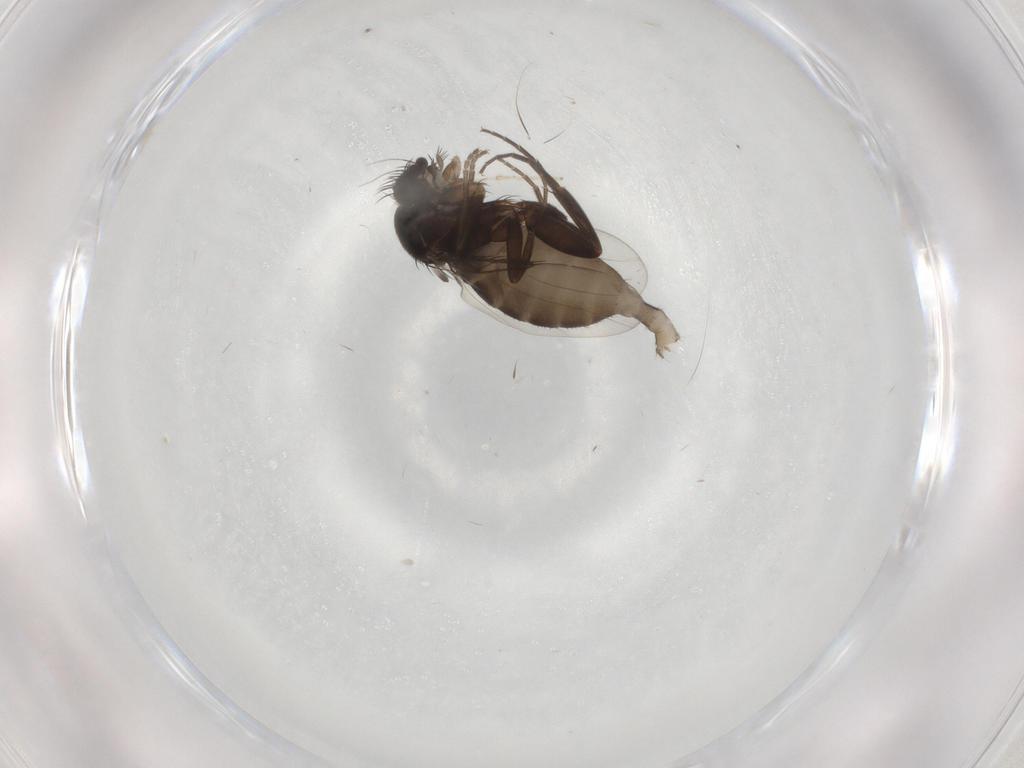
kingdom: Animalia
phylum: Arthropoda
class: Insecta
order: Diptera
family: Phoridae
